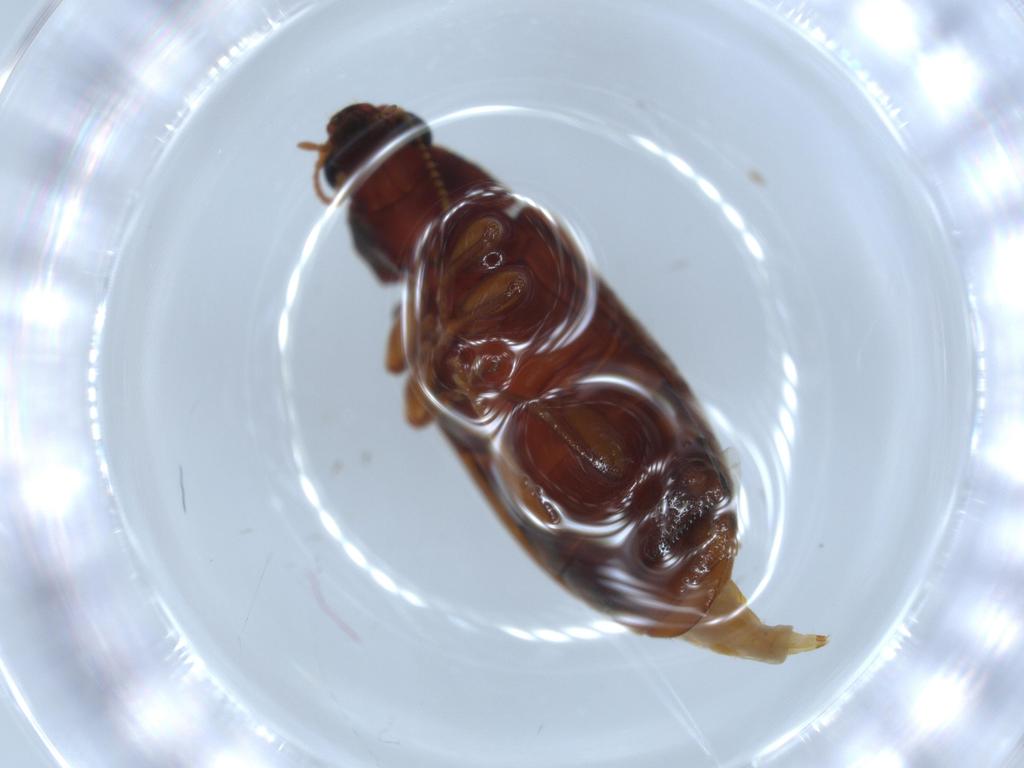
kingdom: Animalia
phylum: Arthropoda
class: Insecta
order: Coleoptera
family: Mycteridae
